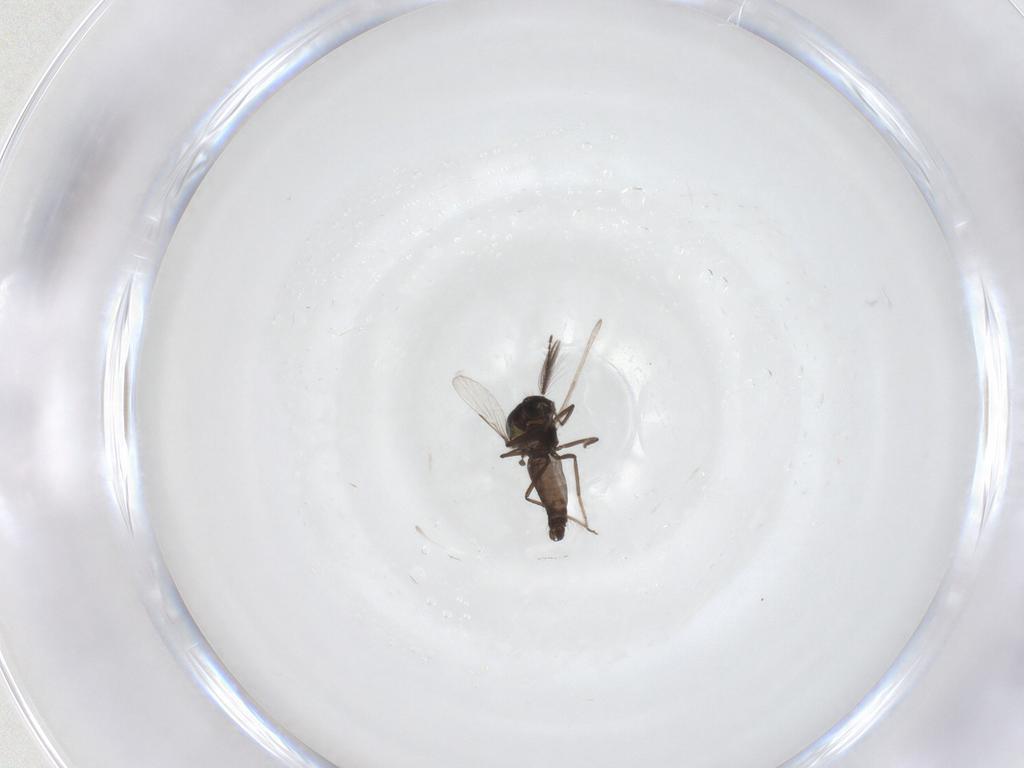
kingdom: Animalia
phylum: Arthropoda
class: Insecta
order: Diptera
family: Ceratopogonidae
